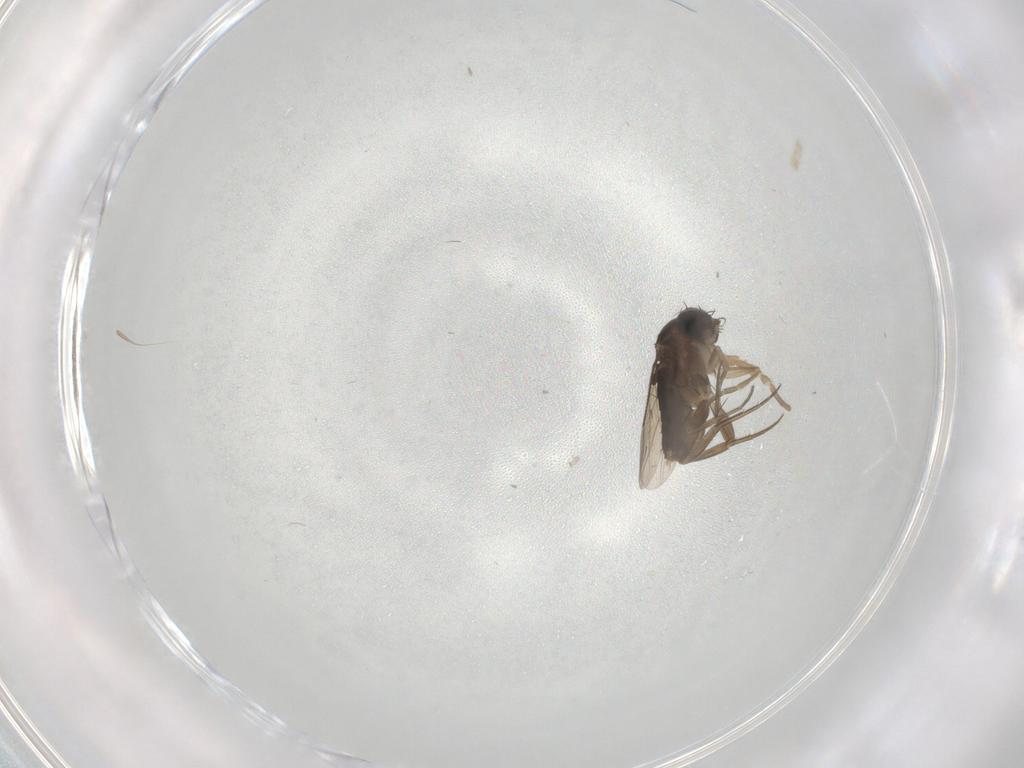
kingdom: Animalia
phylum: Arthropoda
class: Insecta
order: Diptera
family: Phoridae
